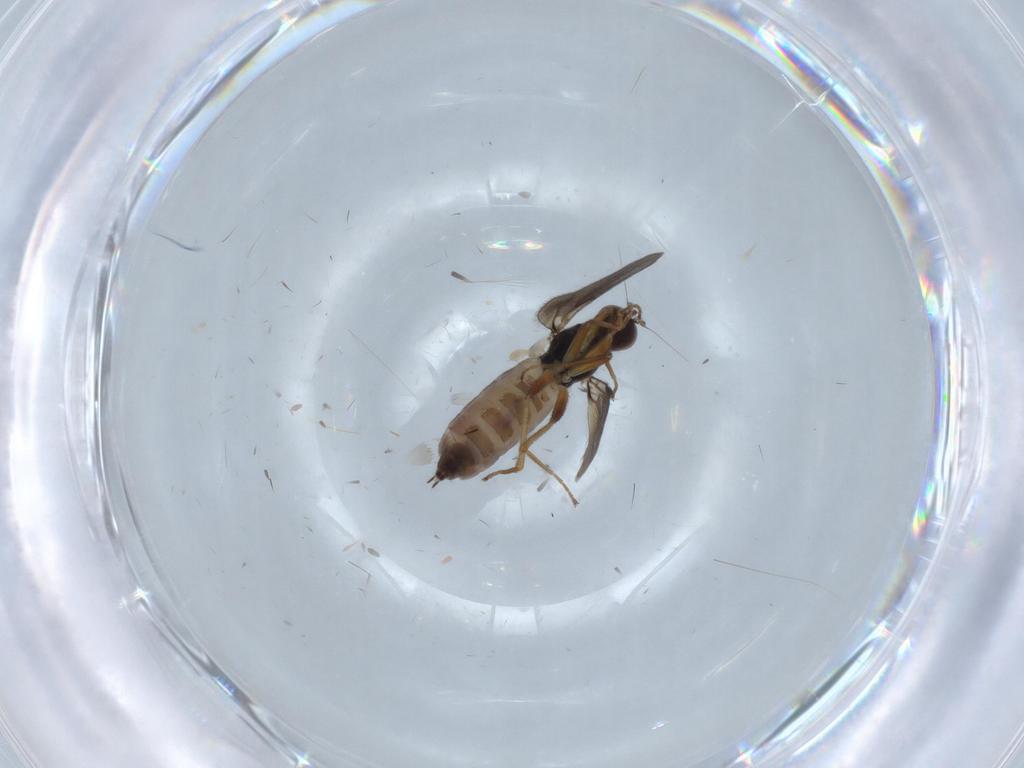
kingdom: Animalia
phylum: Arthropoda
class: Insecta
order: Diptera
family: Hybotidae
